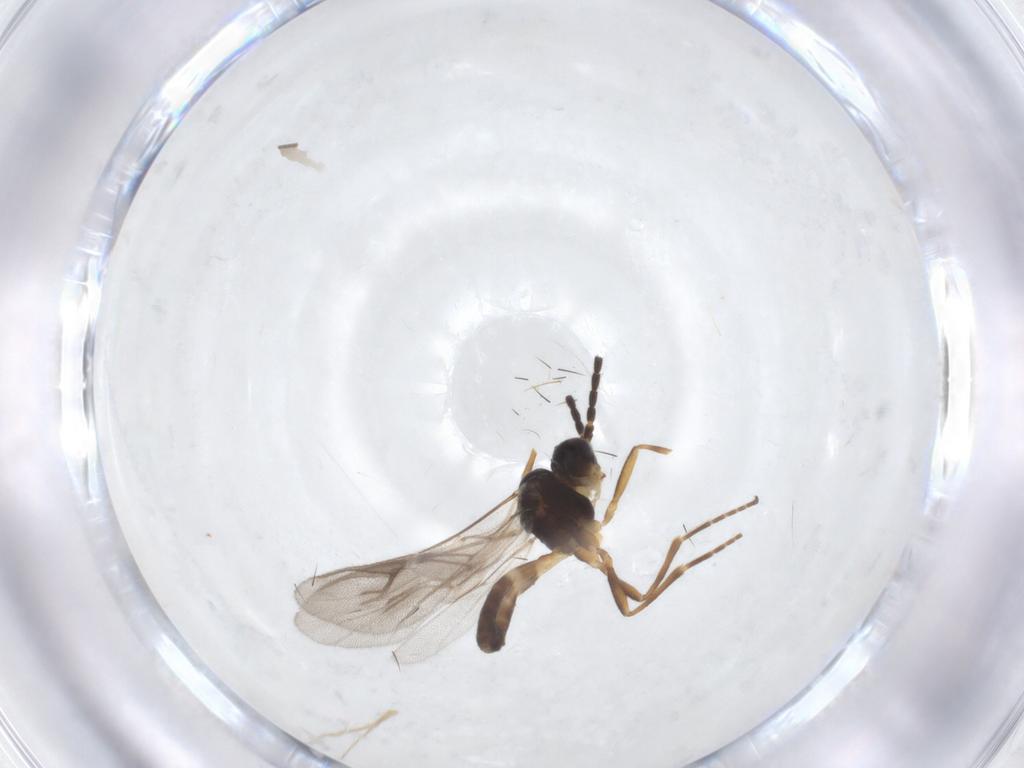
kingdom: Animalia
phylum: Arthropoda
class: Insecta
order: Hymenoptera
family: Braconidae
